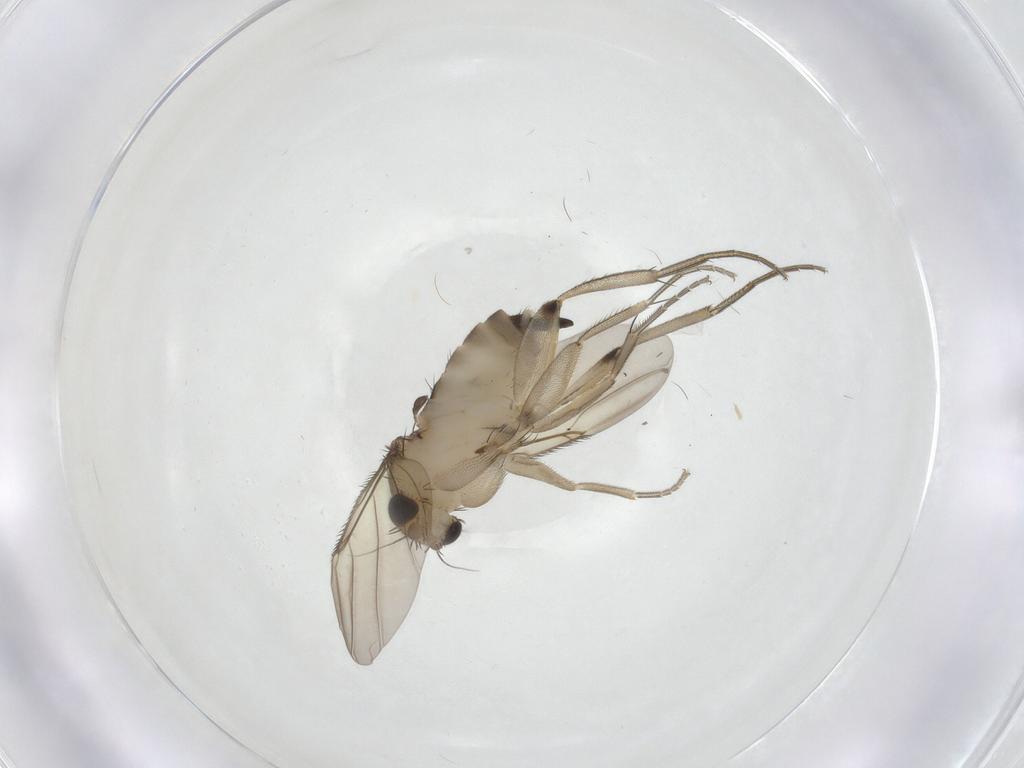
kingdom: Animalia
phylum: Arthropoda
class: Insecta
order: Diptera
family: Phoridae
